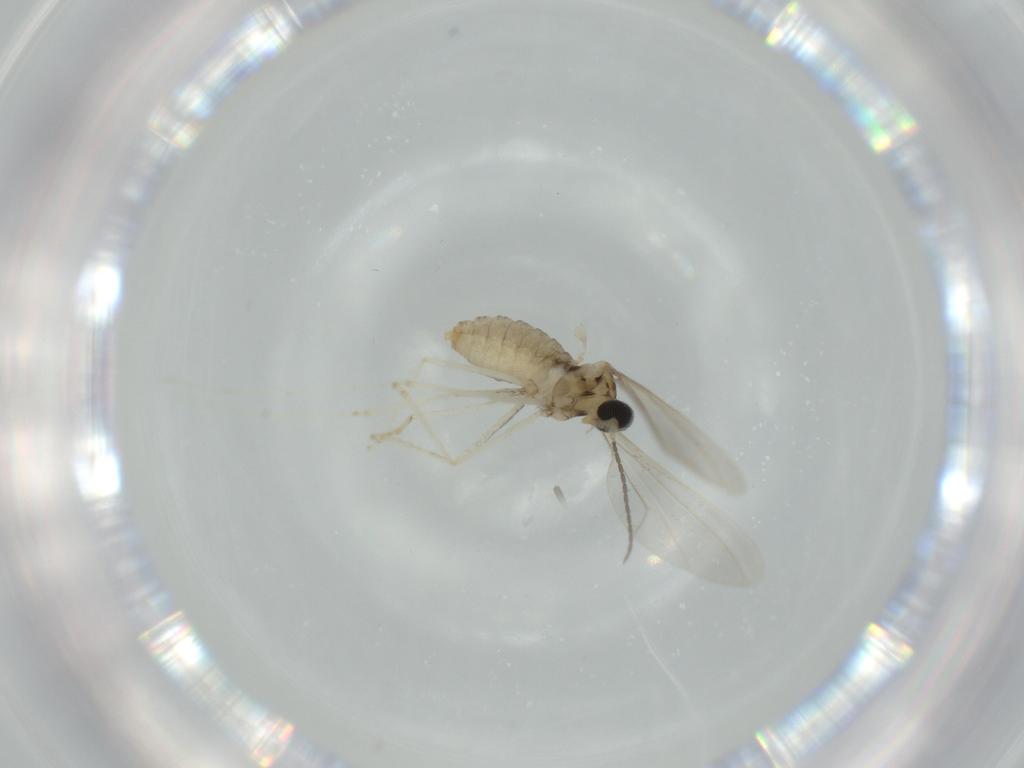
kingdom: Animalia
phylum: Arthropoda
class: Insecta
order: Diptera
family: Cecidomyiidae
